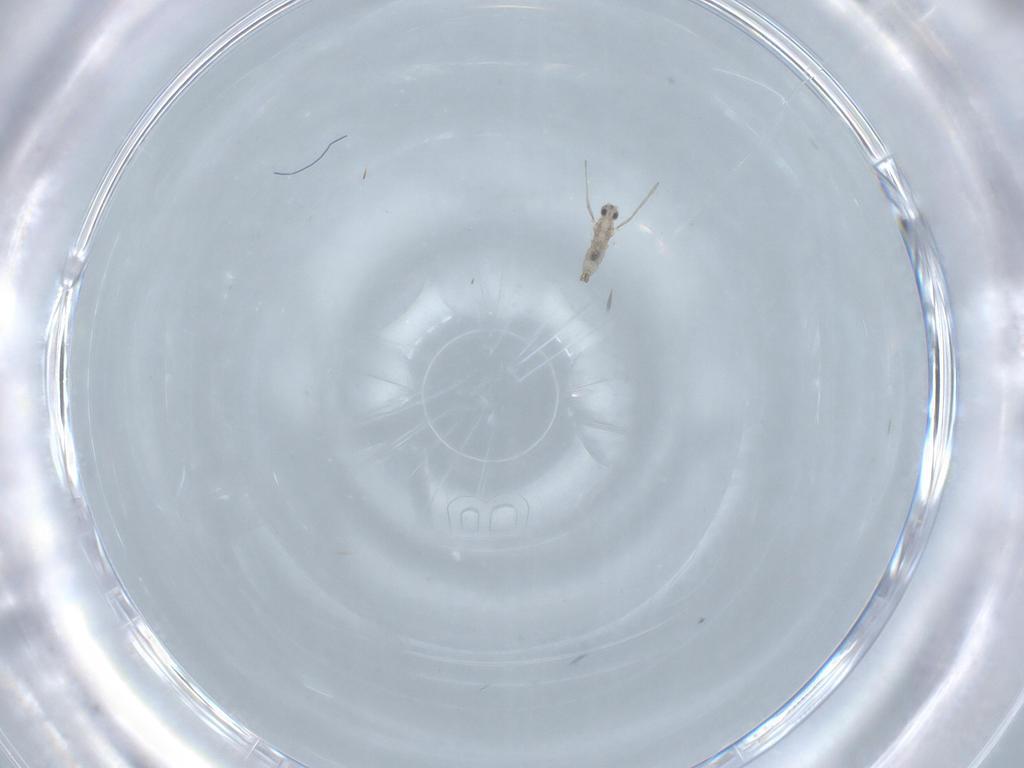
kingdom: Animalia
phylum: Arthropoda
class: Insecta
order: Diptera
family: Cecidomyiidae
